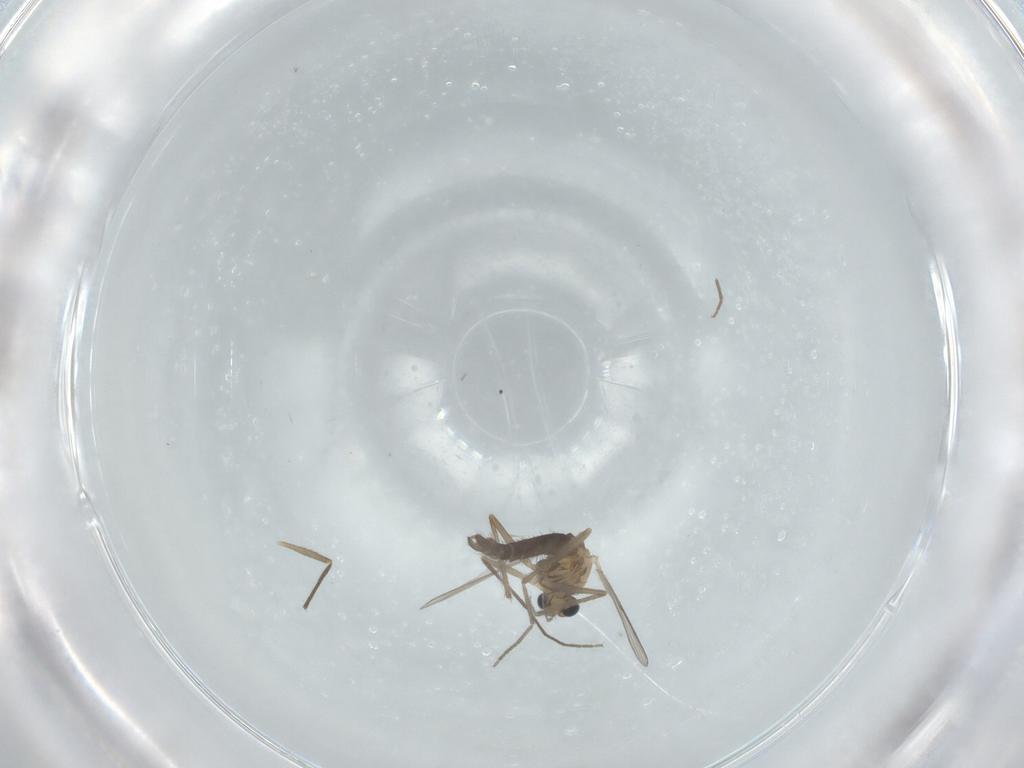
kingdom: Animalia
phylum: Arthropoda
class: Insecta
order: Diptera
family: Chironomidae
